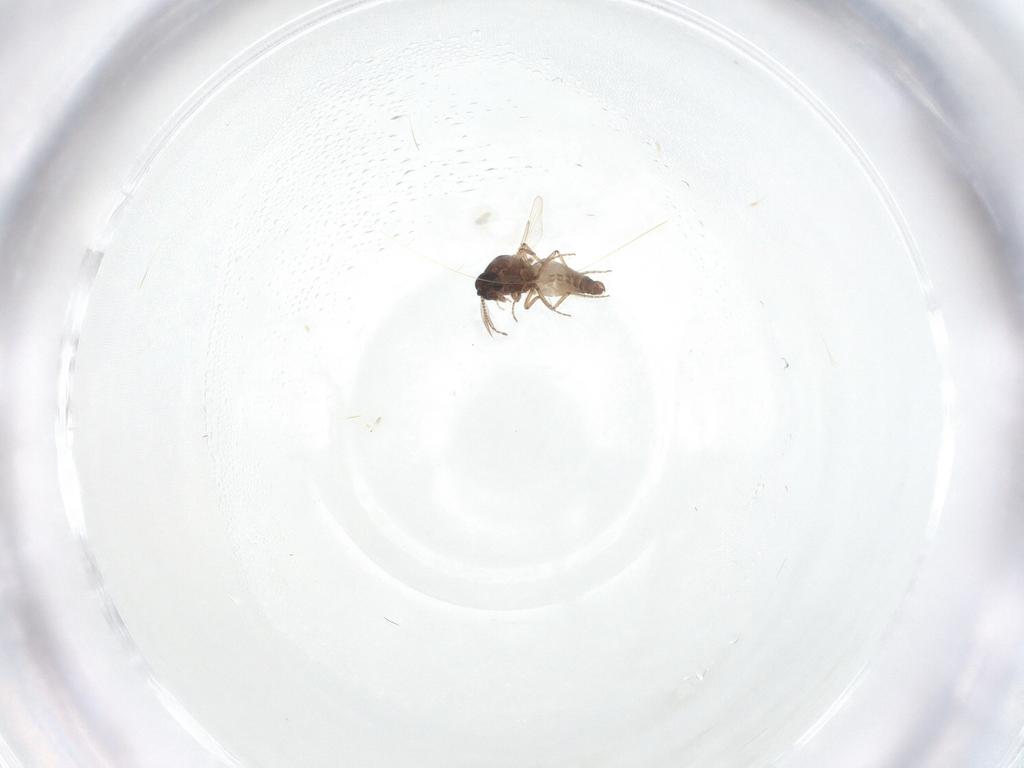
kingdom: Animalia
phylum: Arthropoda
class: Insecta
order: Diptera
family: Ceratopogonidae
